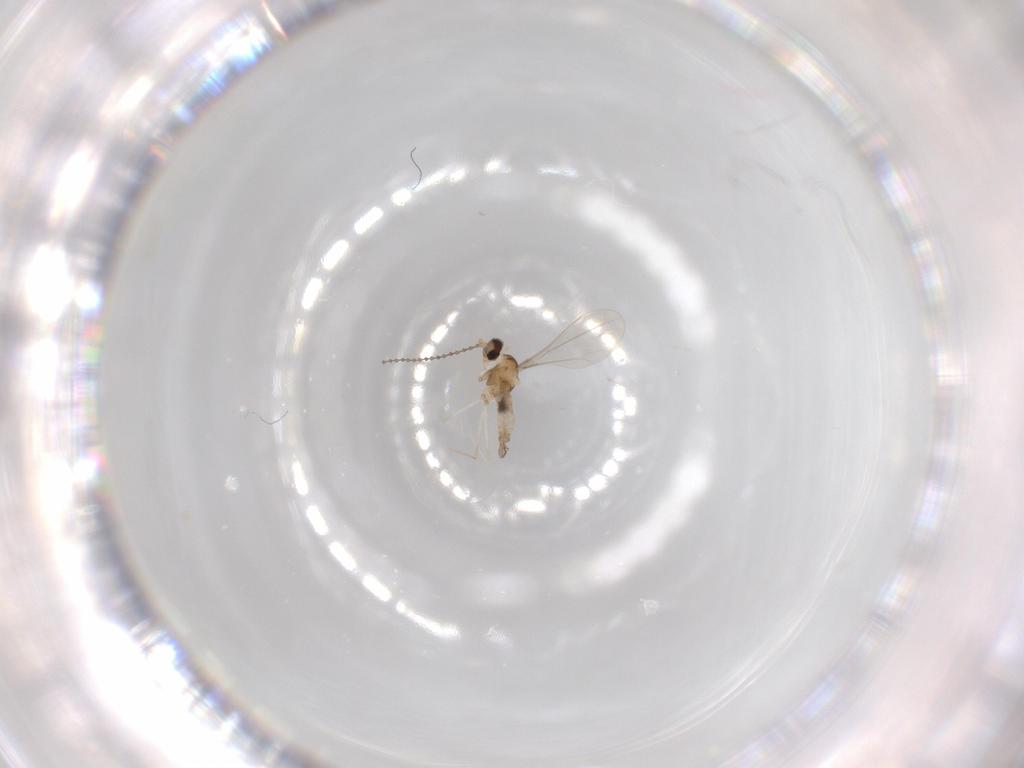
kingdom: Animalia
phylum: Arthropoda
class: Insecta
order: Diptera
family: Cecidomyiidae
